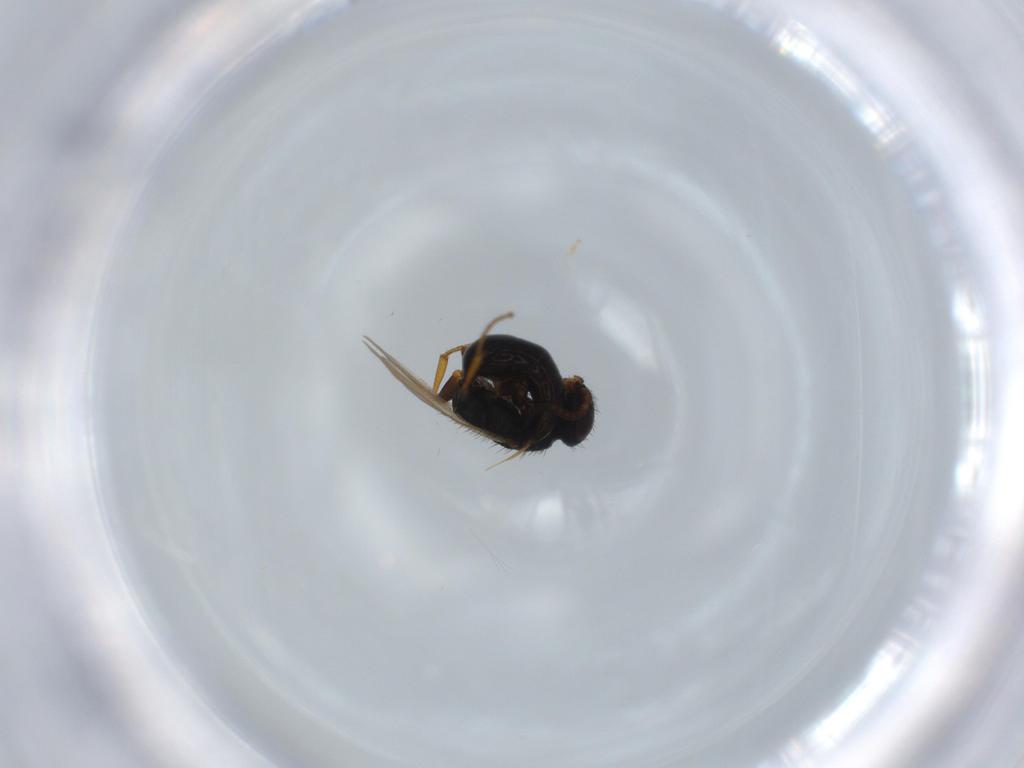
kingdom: Animalia
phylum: Arthropoda
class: Insecta
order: Hymenoptera
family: Bethylidae
